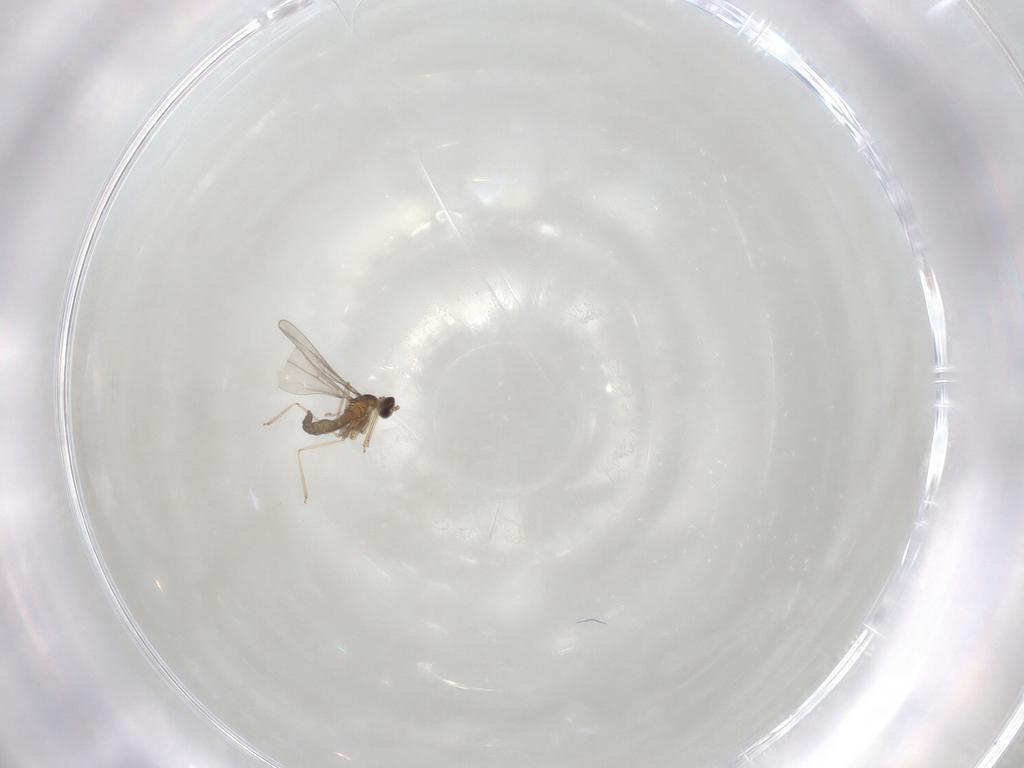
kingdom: Animalia
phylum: Arthropoda
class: Insecta
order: Diptera
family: Cecidomyiidae
